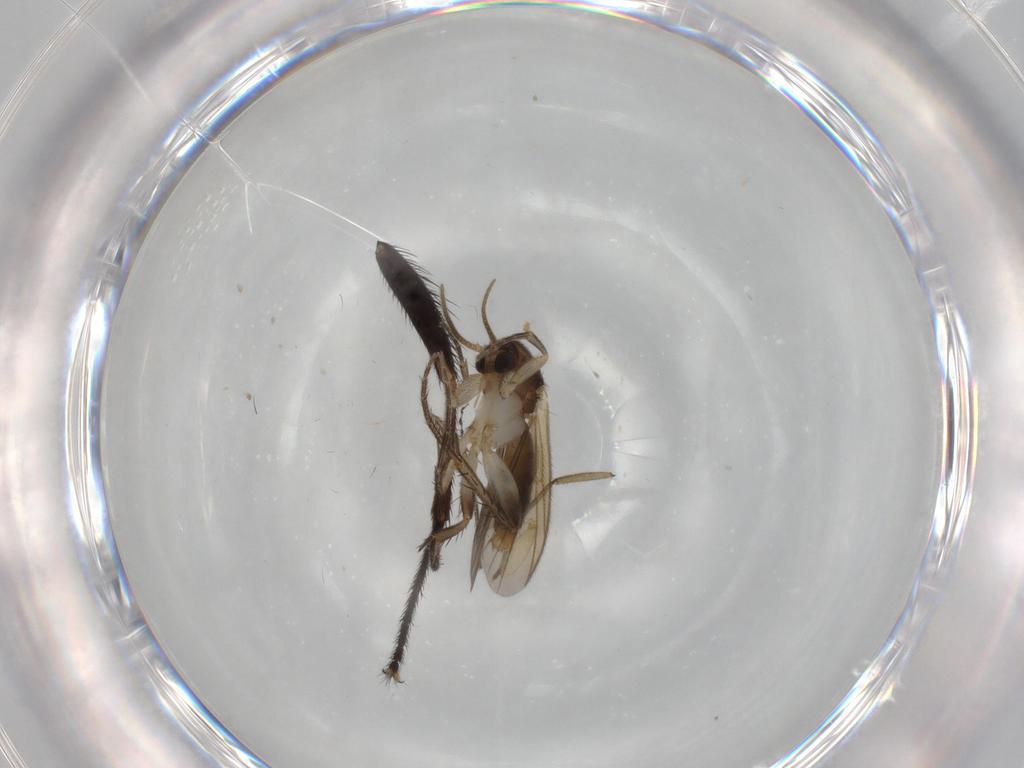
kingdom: Animalia
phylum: Arthropoda
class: Insecta
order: Diptera
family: Sciaridae
